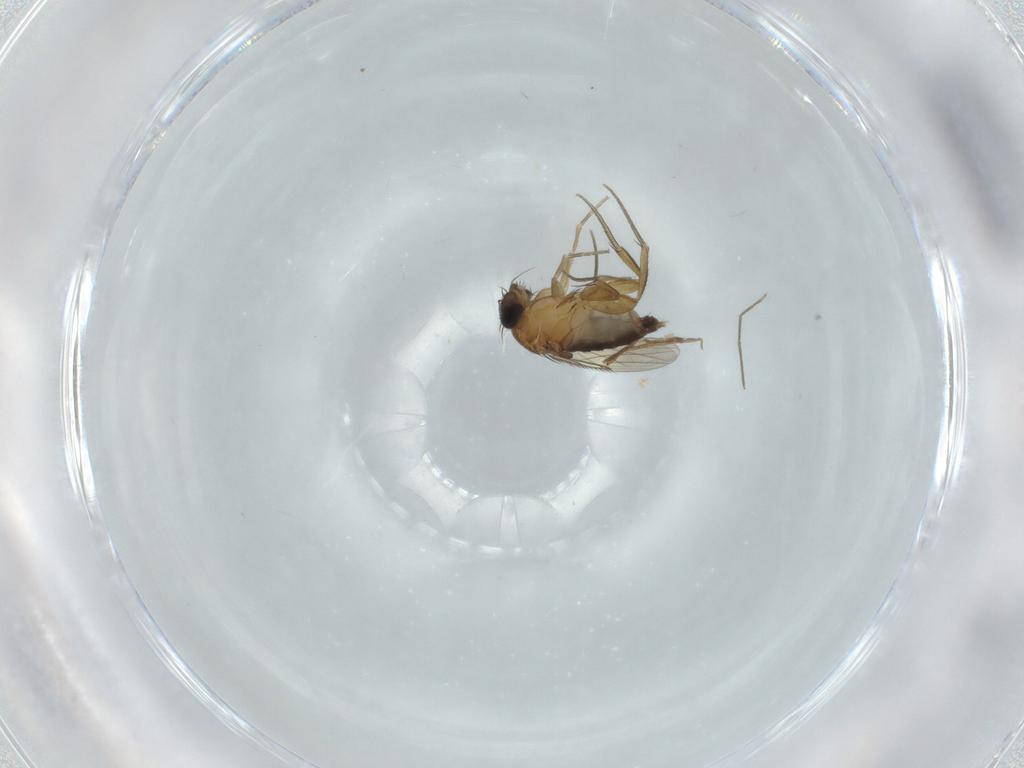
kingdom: Animalia
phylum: Arthropoda
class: Insecta
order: Diptera
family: Phoridae
